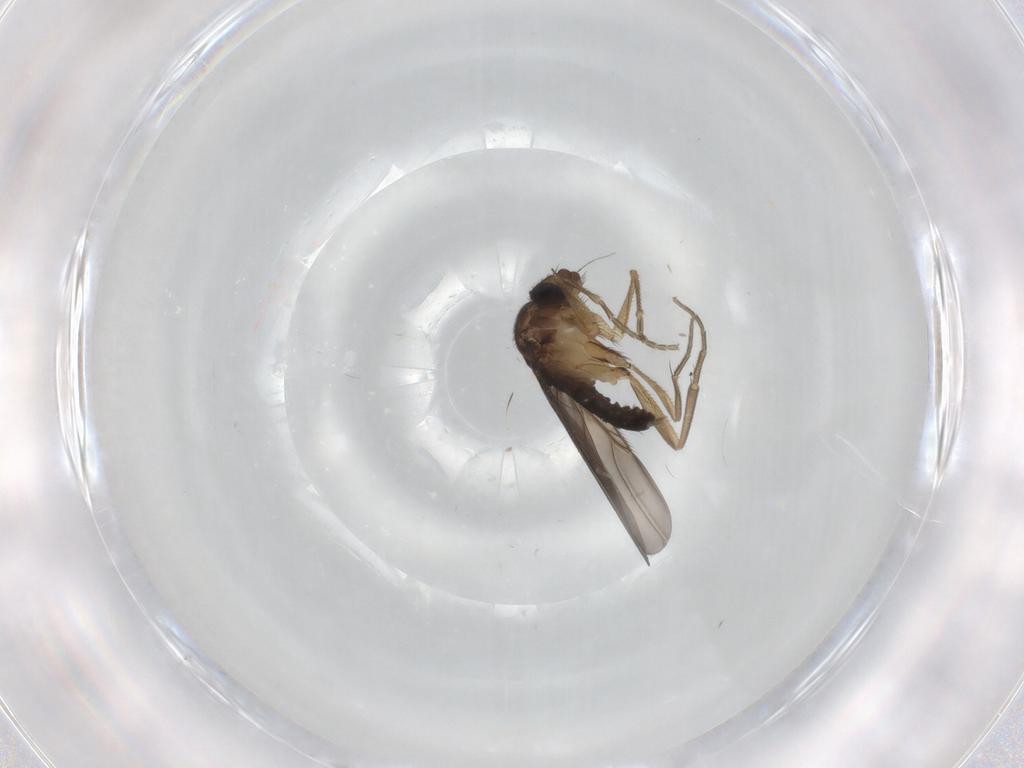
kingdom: Animalia
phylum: Arthropoda
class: Insecta
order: Diptera
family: Phoridae
